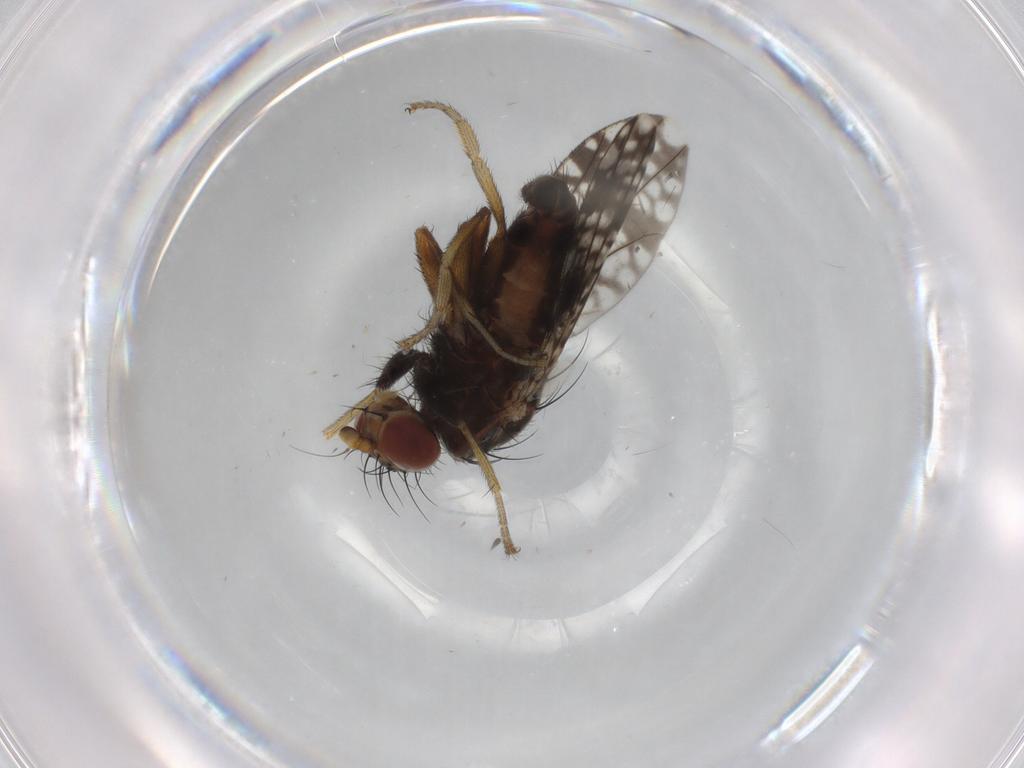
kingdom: Animalia
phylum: Arthropoda
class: Insecta
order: Diptera
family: Tephritidae
